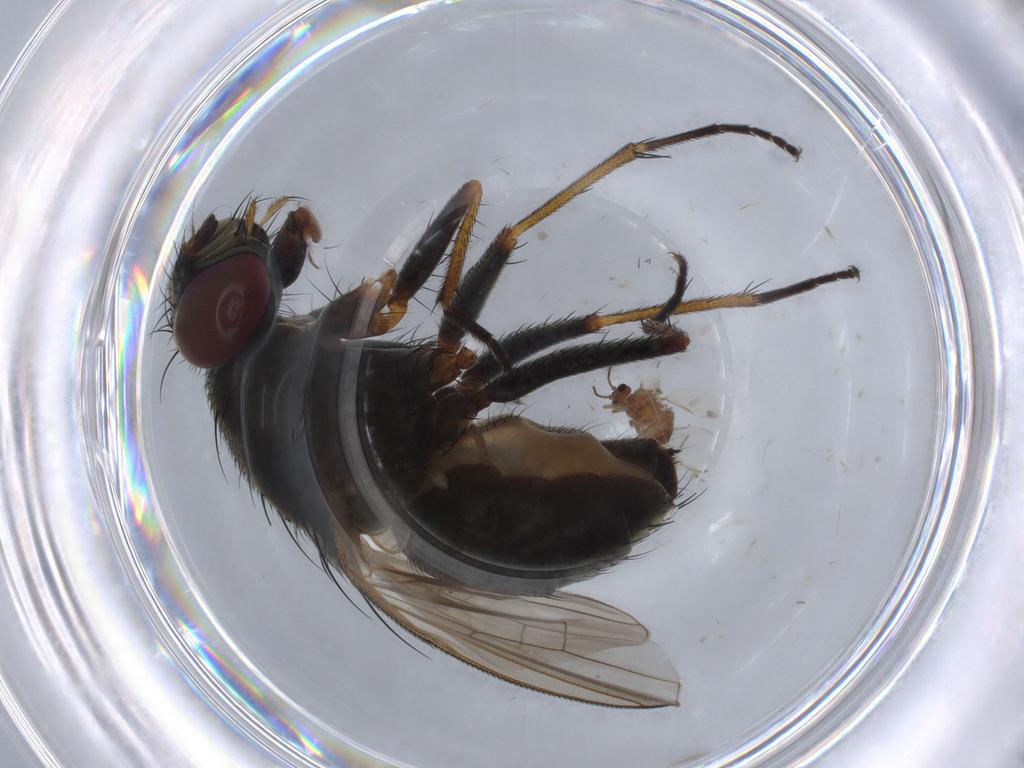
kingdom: Animalia
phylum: Arthropoda
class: Insecta
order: Diptera
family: Ceratopogonidae
